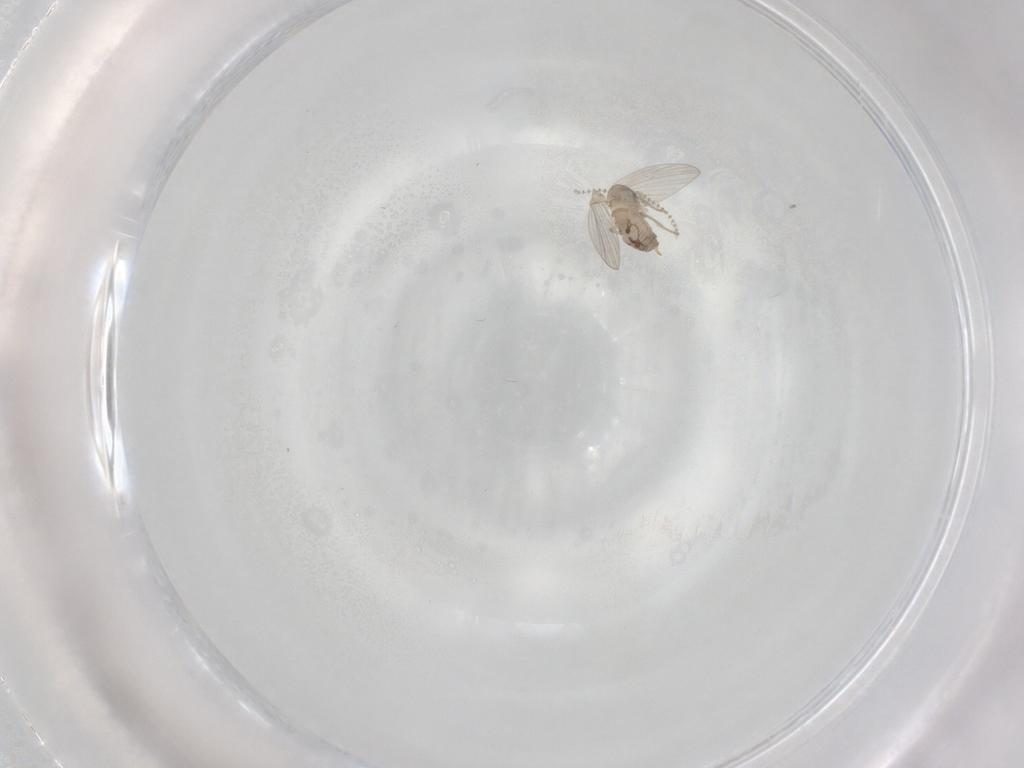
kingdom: Animalia
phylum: Arthropoda
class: Insecta
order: Diptera
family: Psychodidae
